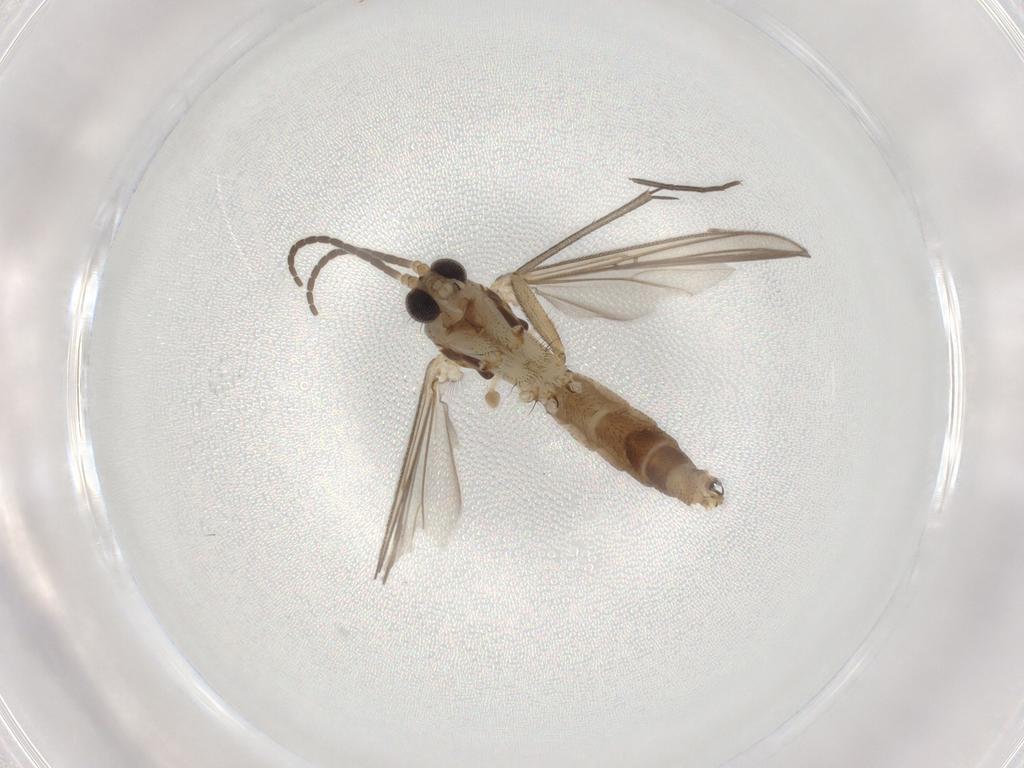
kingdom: Animalia
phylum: Arthropoda
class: Insecta
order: Diptera
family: Mycetophilidae
